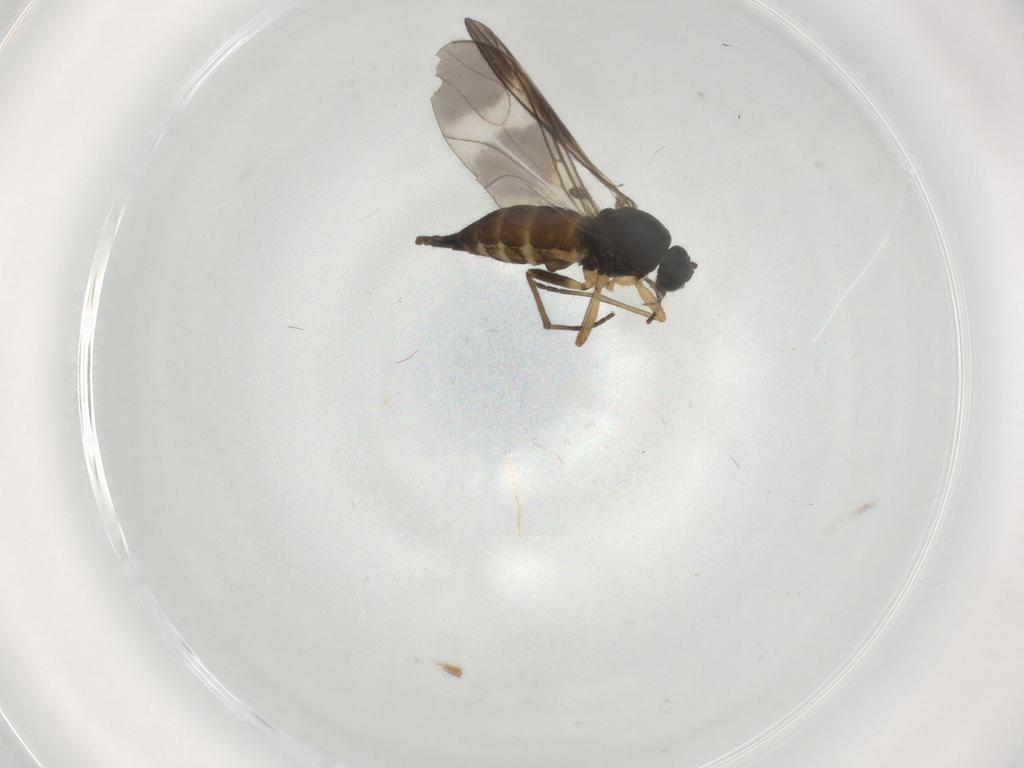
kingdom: Animalia
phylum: Arthropoda
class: Insecta
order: Diptera
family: Sciaridae
